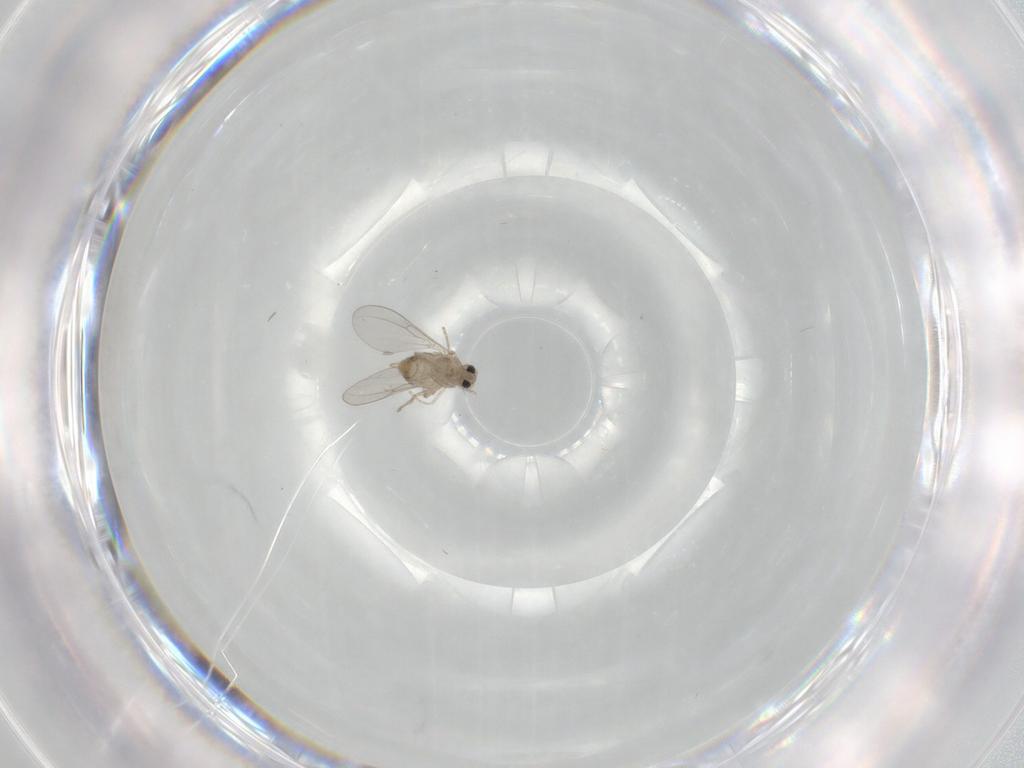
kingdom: Animalia
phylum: Arthropoda
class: Insecta
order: Diptera
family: Cecidomyiidae
